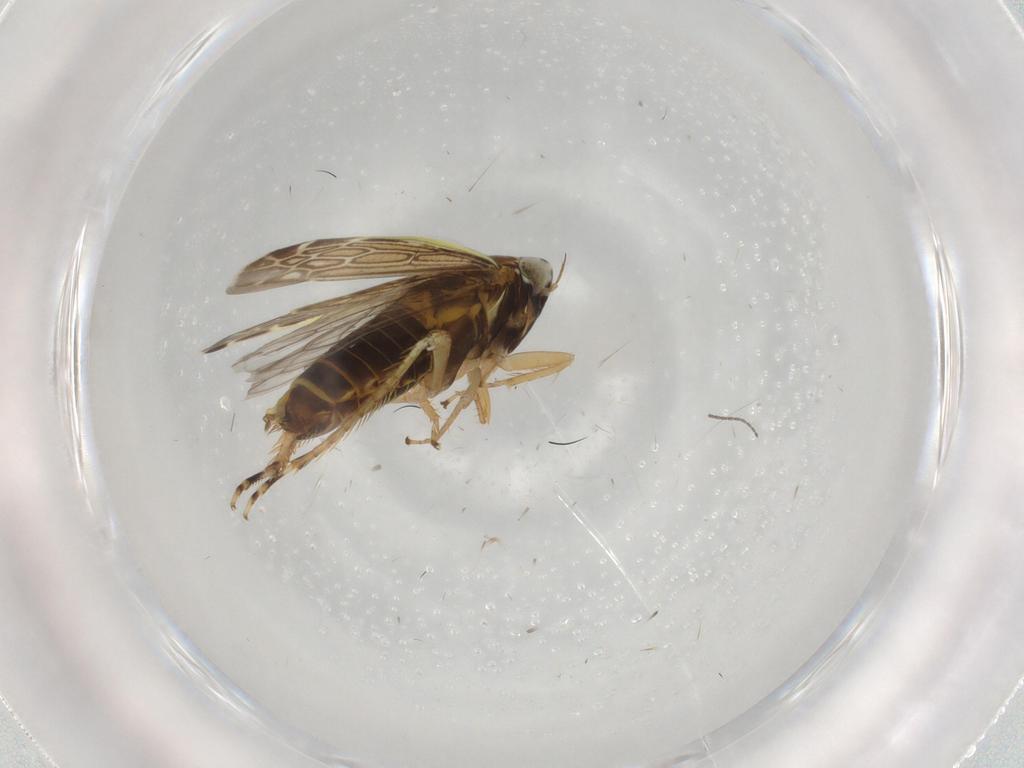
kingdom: Animalia
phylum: Arthropoda
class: Insecta
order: Hemiptera
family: Cicadellidae
